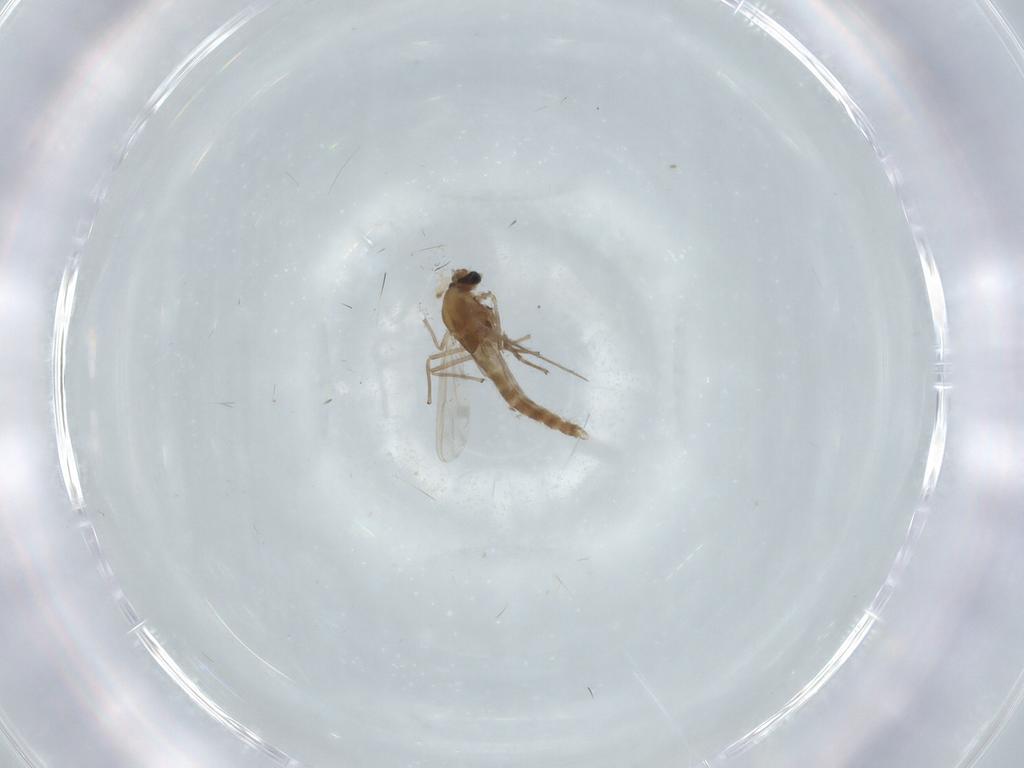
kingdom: Animalia
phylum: Arthropoda
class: Insecta
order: Diptera
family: Chironomidae
